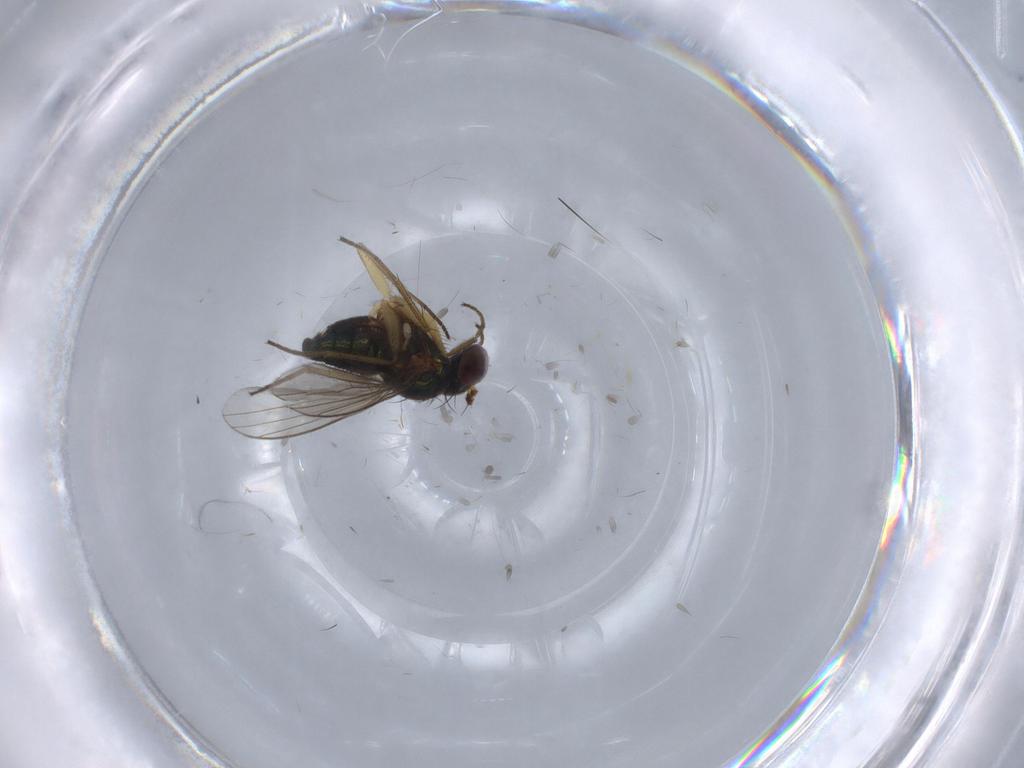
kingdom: Animalia
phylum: Arthropoda
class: Insecta
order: Diptera
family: Cecidomyiidae
